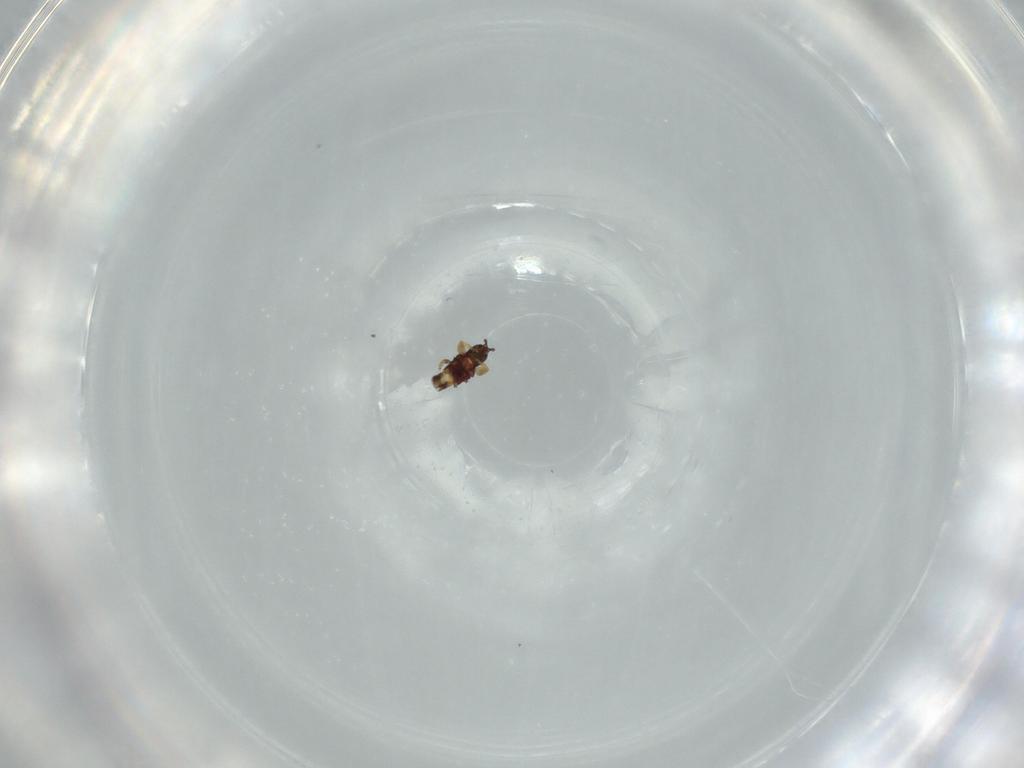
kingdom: Animalia
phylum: Arthropoda
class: Insecta
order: Thysanoptera
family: Phlaeothripidae
